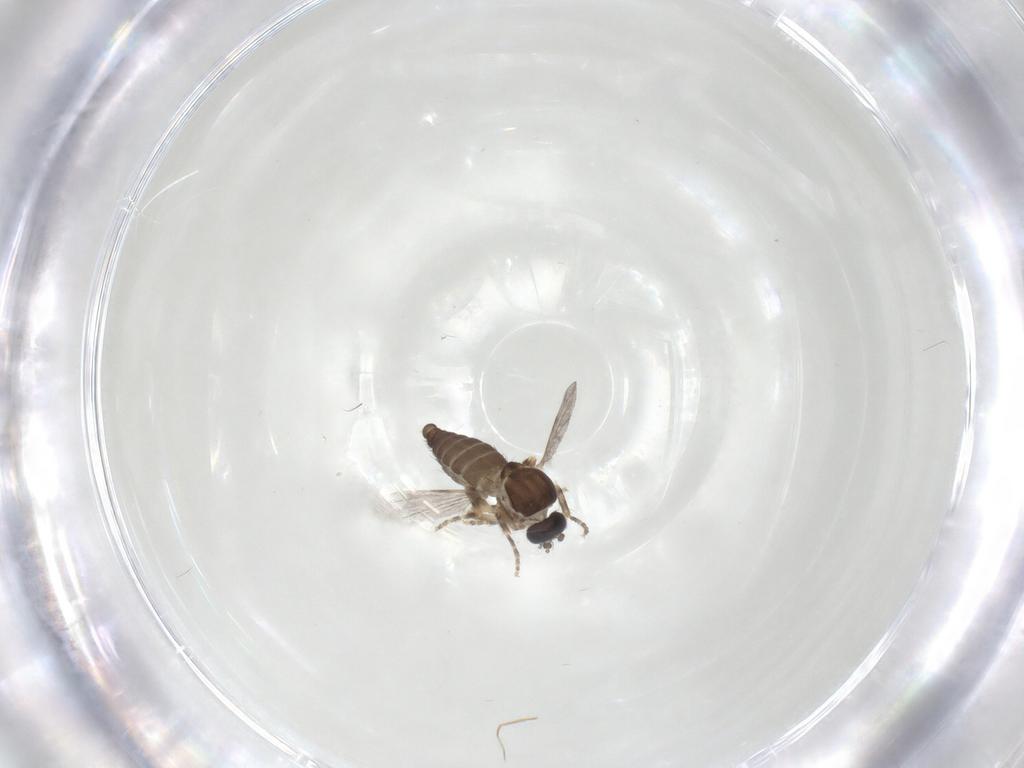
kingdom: Animalia
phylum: Arthropoda
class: Insecta
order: Diptera
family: Ceratopogonidae
